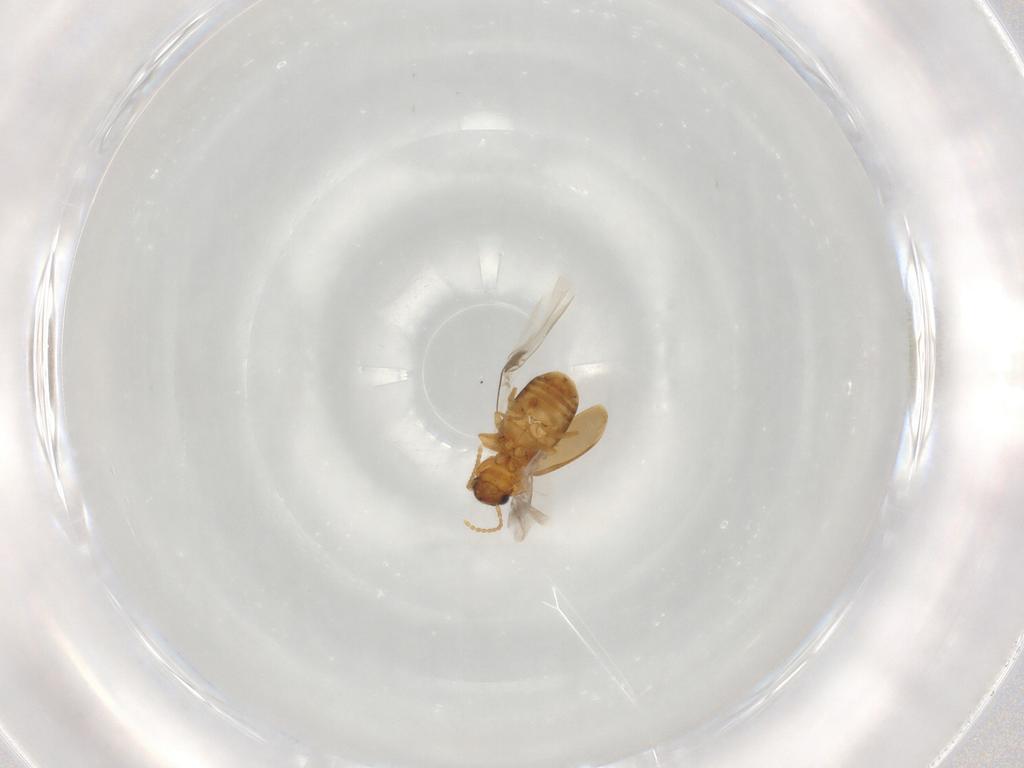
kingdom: Animalia
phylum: Arthropoda
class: Insecta
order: Coleoptera
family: Carabidae
